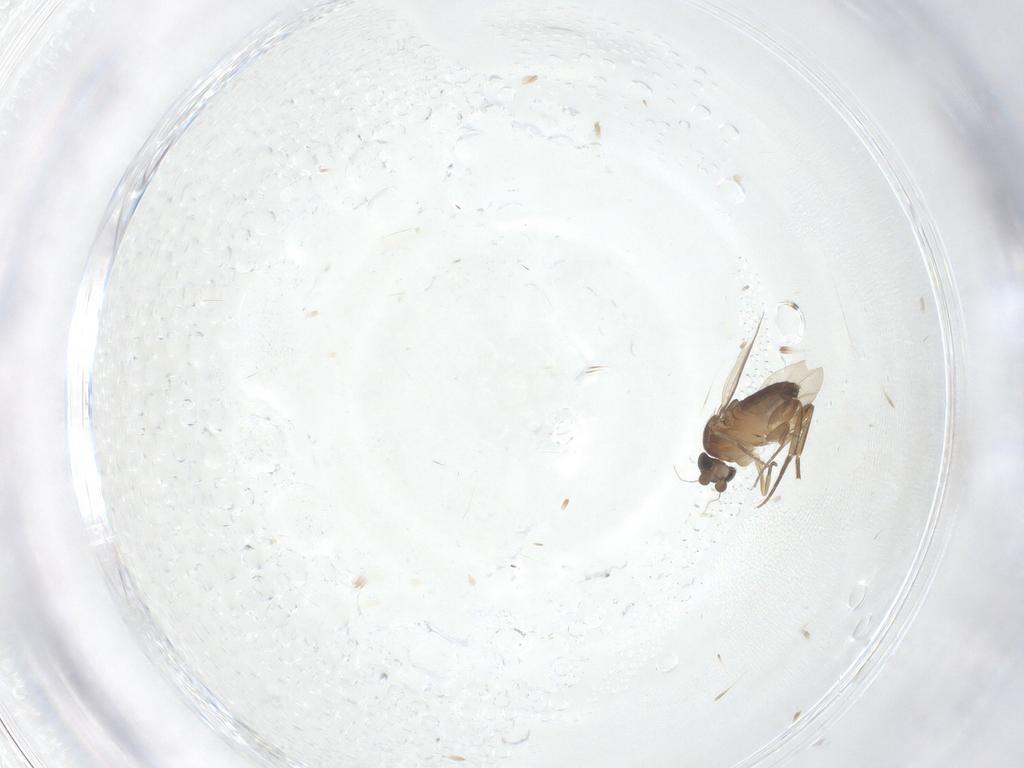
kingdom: Animalia
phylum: Arthropoda
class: Insecta
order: Diptera
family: Phoridae
